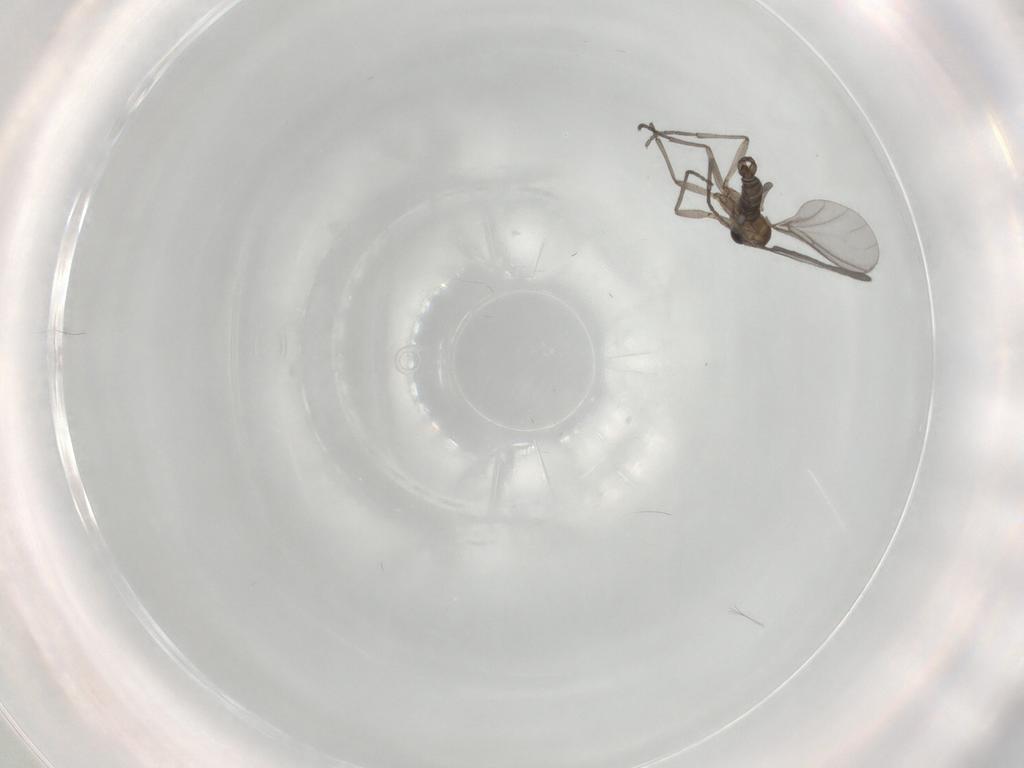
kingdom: Animalia
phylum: Arthropoda
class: Insecta
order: Diptera
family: Sciaridae
